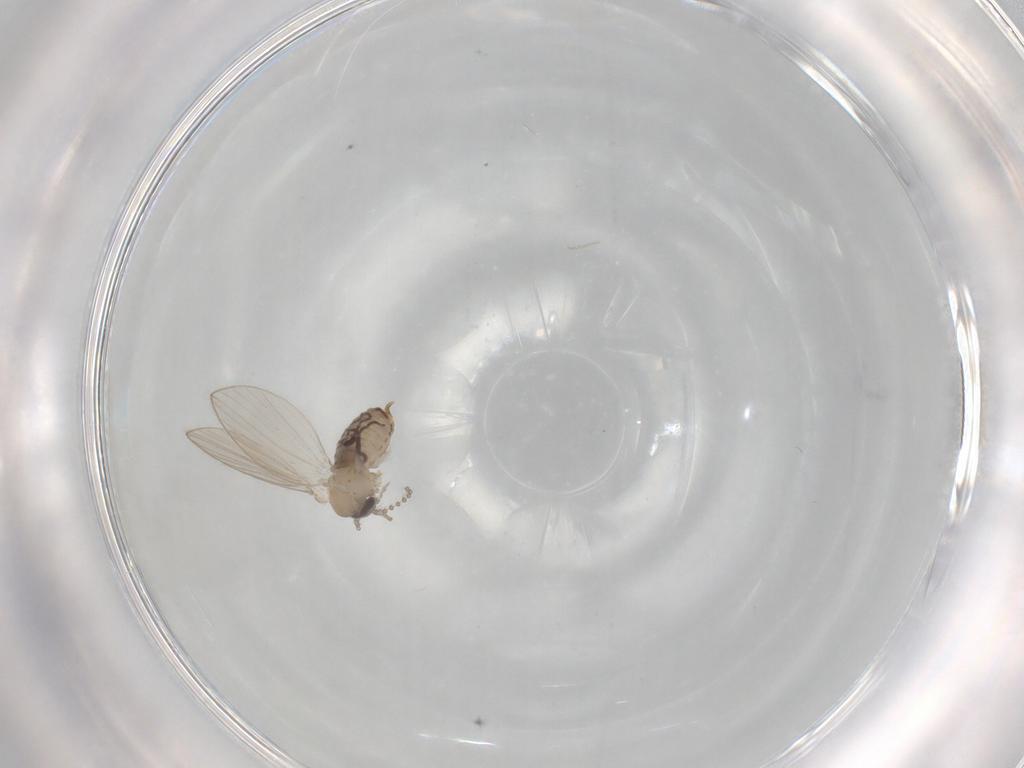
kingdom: Animalia
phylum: Arthropoda
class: Insecta
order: Diptera
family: Psychodidae
